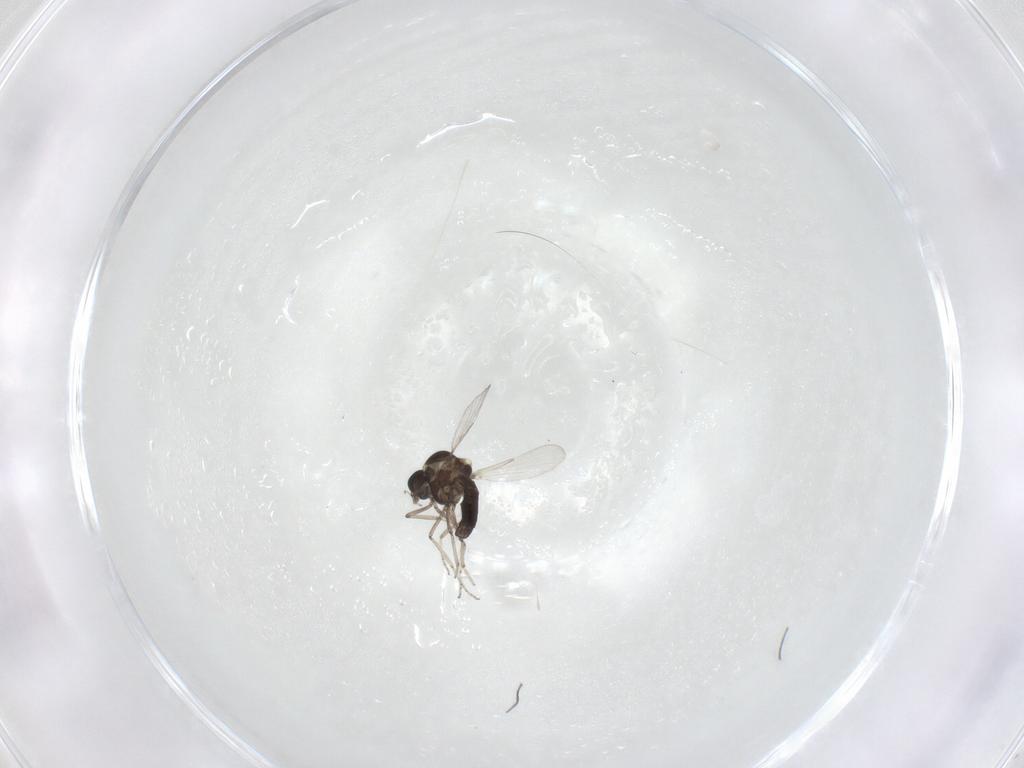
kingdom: Animalia
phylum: Arthropoda
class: Insecta
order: Diptera
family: Ceratopogonidae
